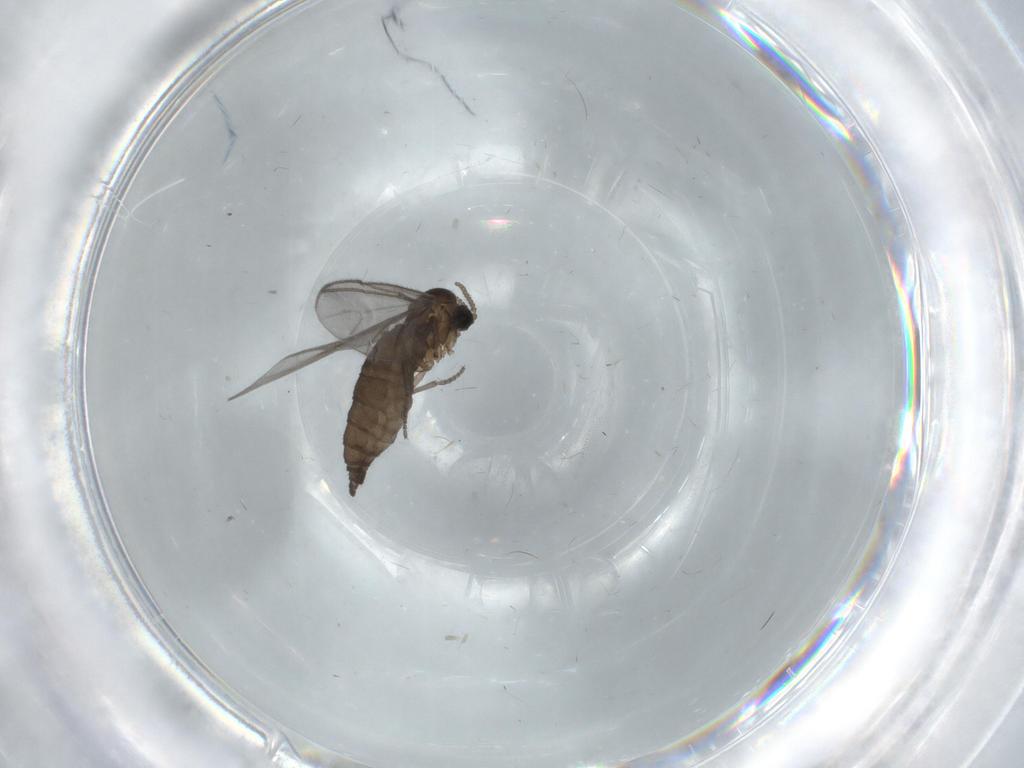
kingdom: Animalia
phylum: Arthropoda
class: Insecta
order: Diptera
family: Sciaridae
